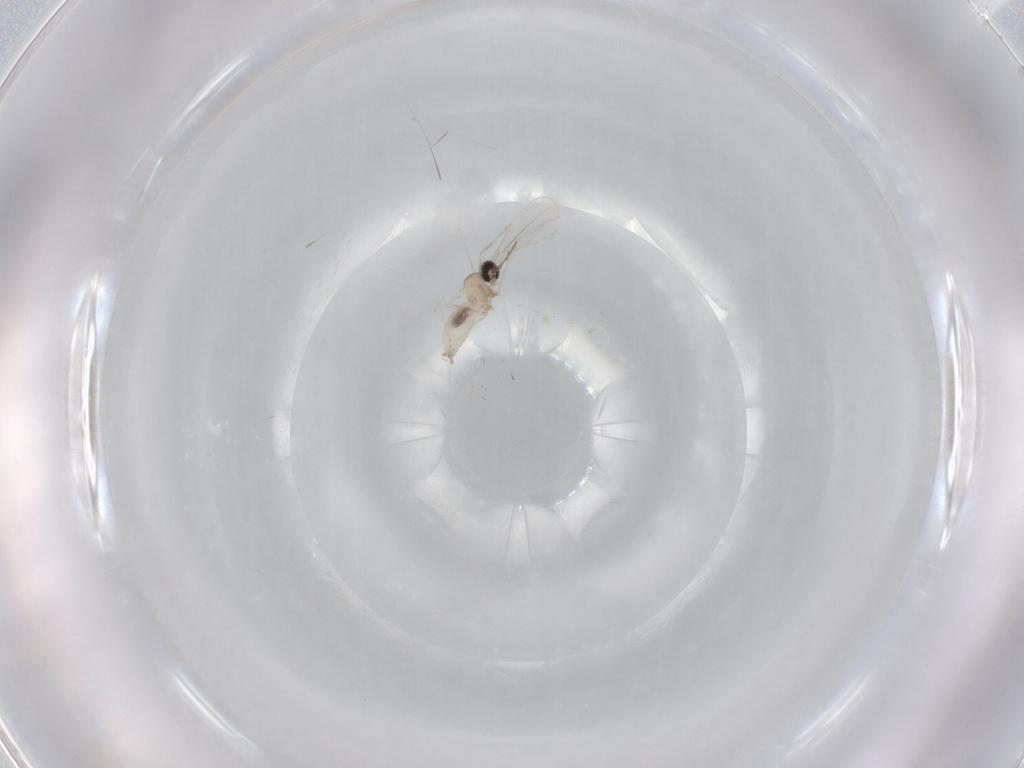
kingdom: Animalia
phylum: Arthropoda
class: Insecta
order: Diptera
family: Cecidomyiidae
